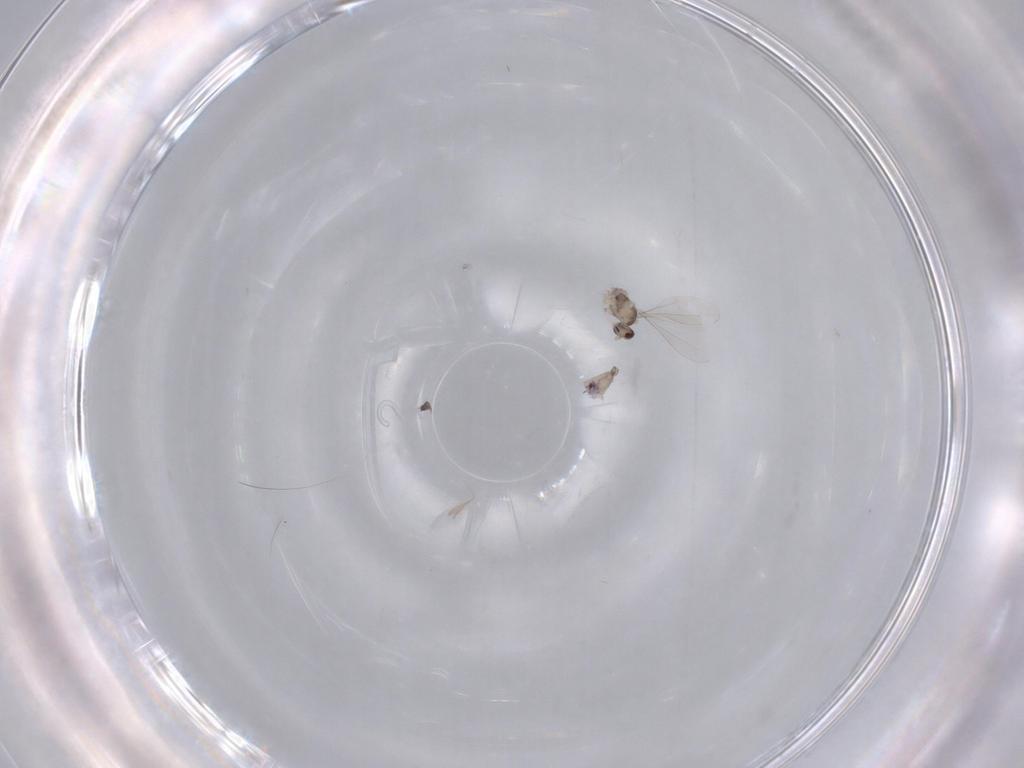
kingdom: Animalia
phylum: Arthropoda
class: Insecta
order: Diptera
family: Cecidomyiidae
